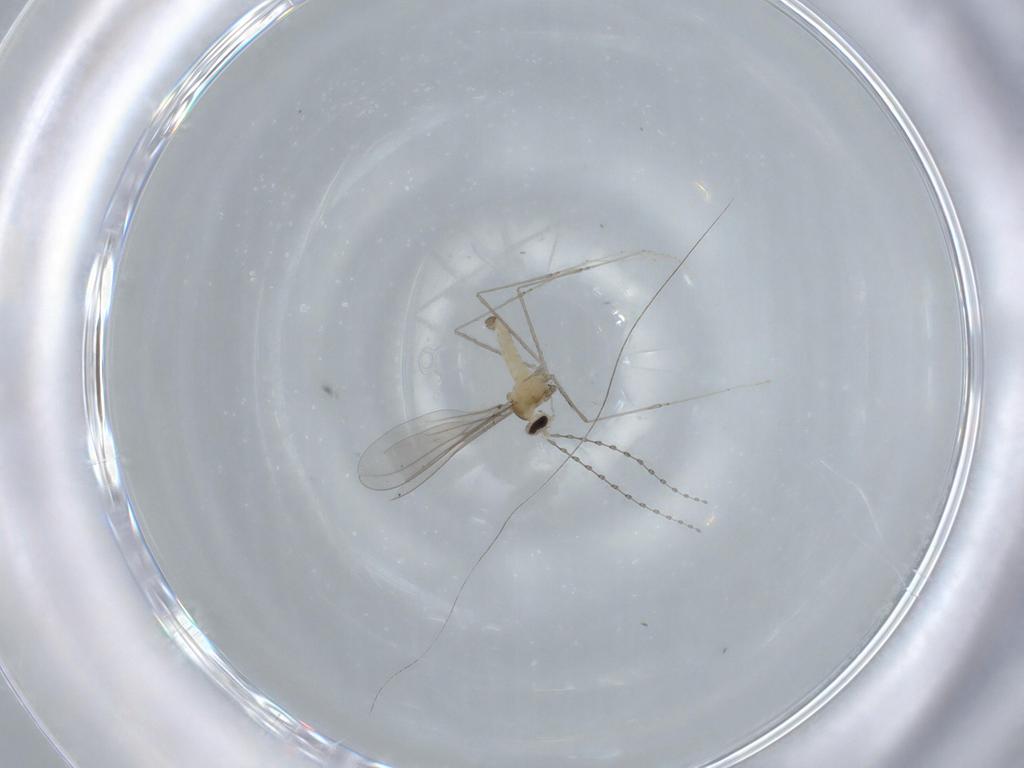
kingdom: Animalia
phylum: Arthropoda
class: Insecta
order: Diptera
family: Cecidomyiidae
